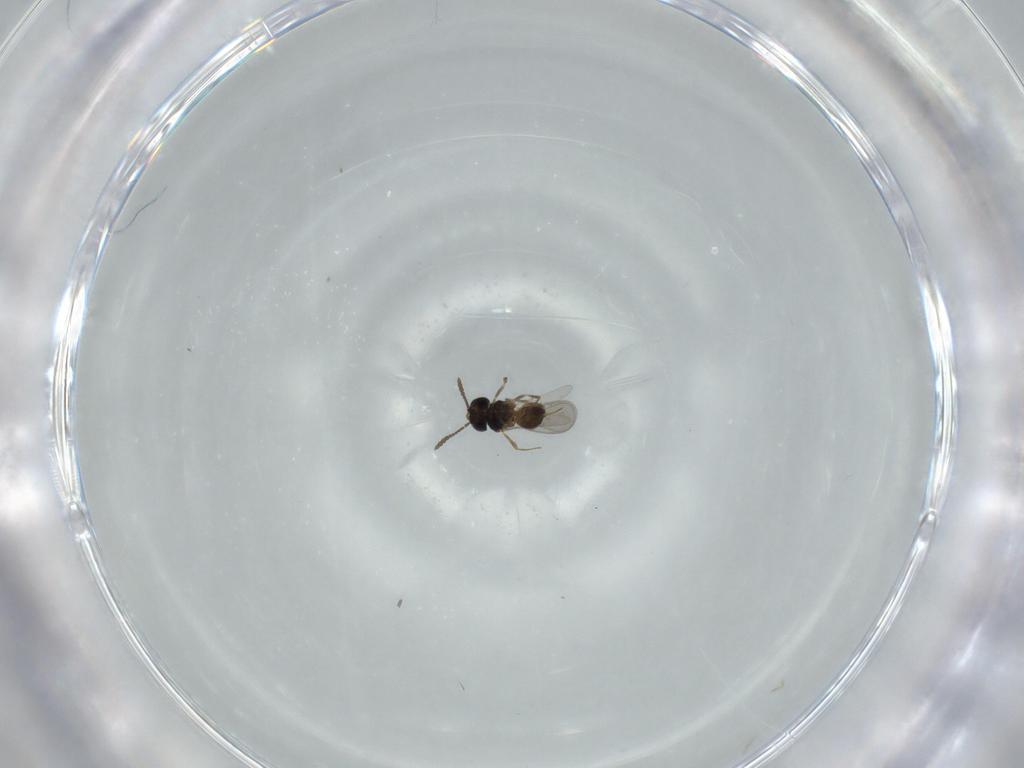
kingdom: Animalia
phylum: Arthropoda
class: Insecta
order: Hymenoptera
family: Scelionidae
